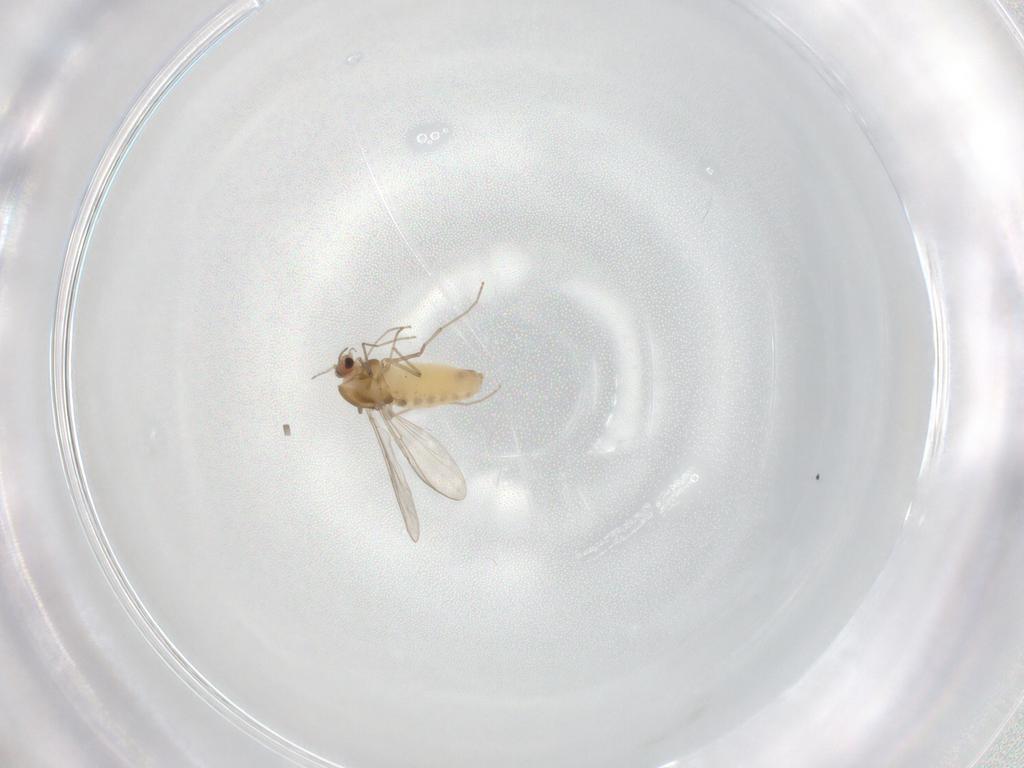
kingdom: Animalia
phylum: Arthropoda
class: Insecta
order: Diptera
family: Chironomidae
